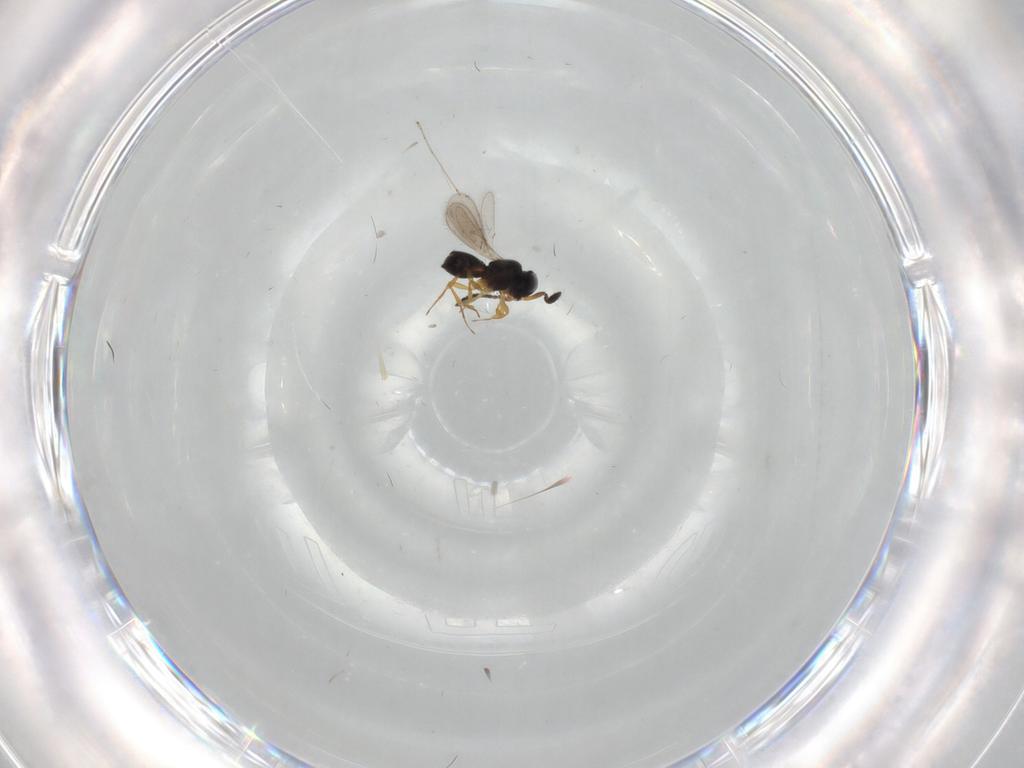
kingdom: Animalia
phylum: Arthropoda
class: Insecta
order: Hymenoptera
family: Scelionidae
